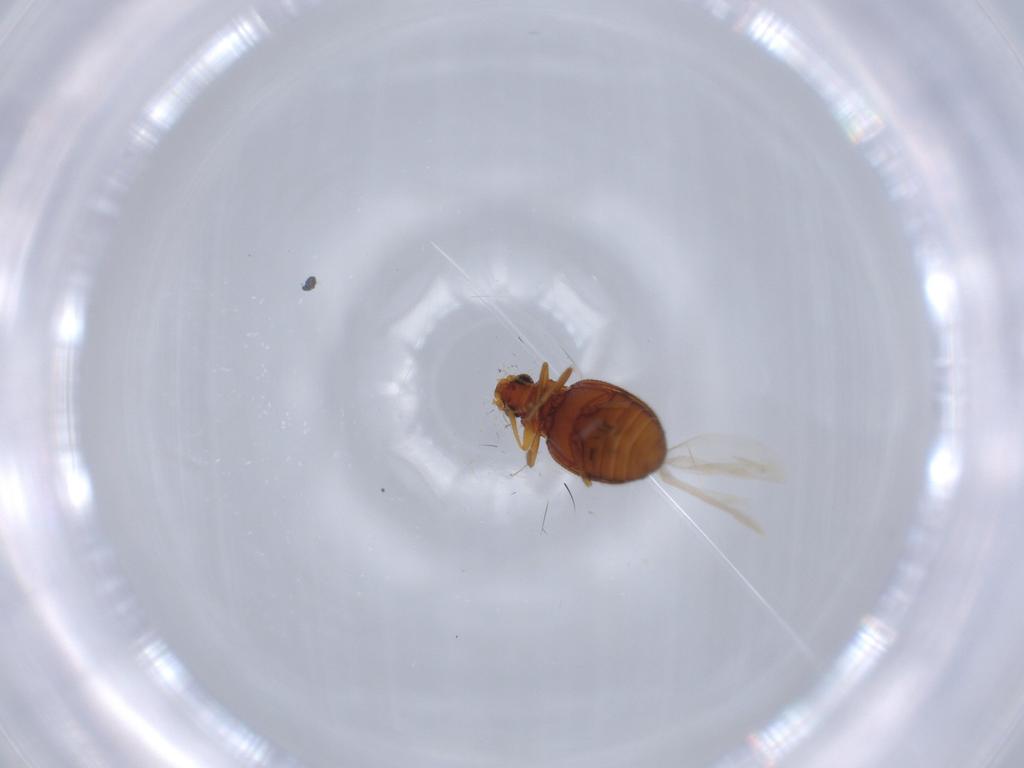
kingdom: Animalia
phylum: Arthropoda
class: Insecta
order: Coleoptera
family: Latridiidae
